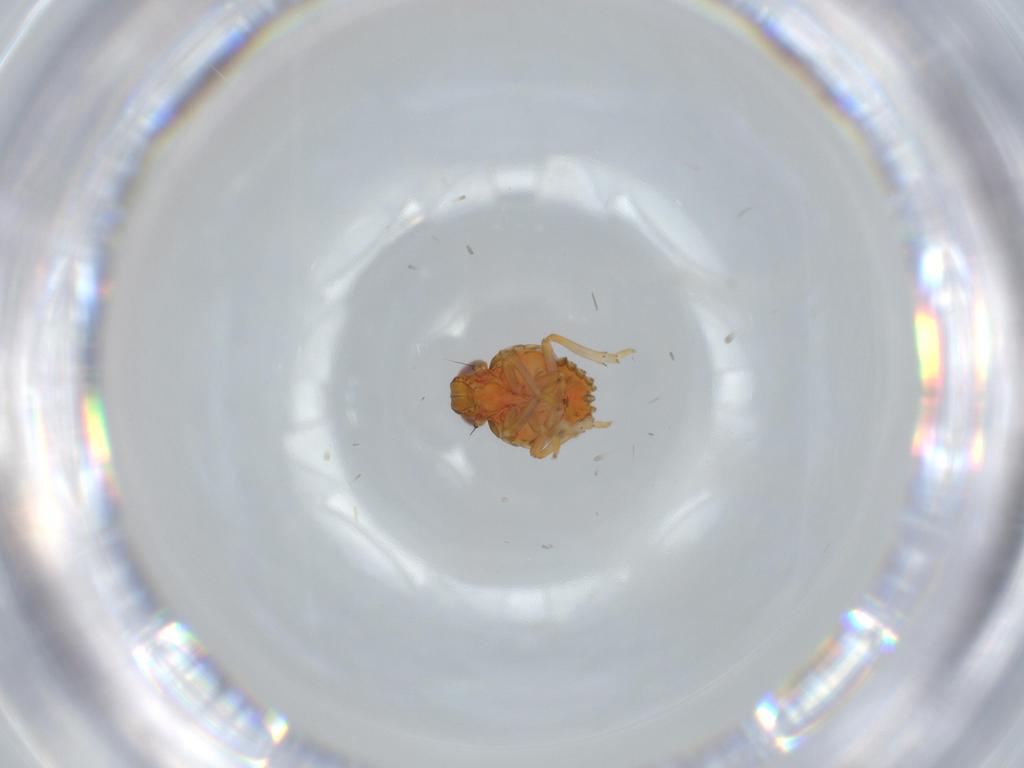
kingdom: Animalia
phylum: Arthropoda
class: Insecta
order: Hemiptera
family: Issidae
